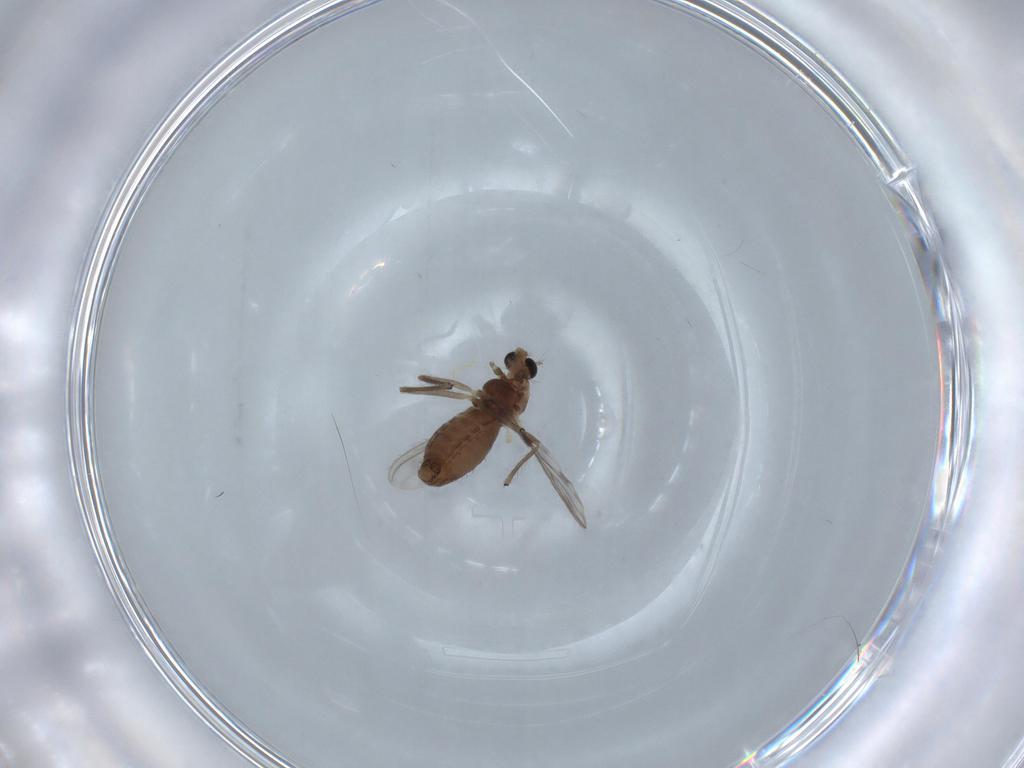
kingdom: Animalia
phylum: Arthropoda
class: Insecta
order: Diptera
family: Chironomidae
